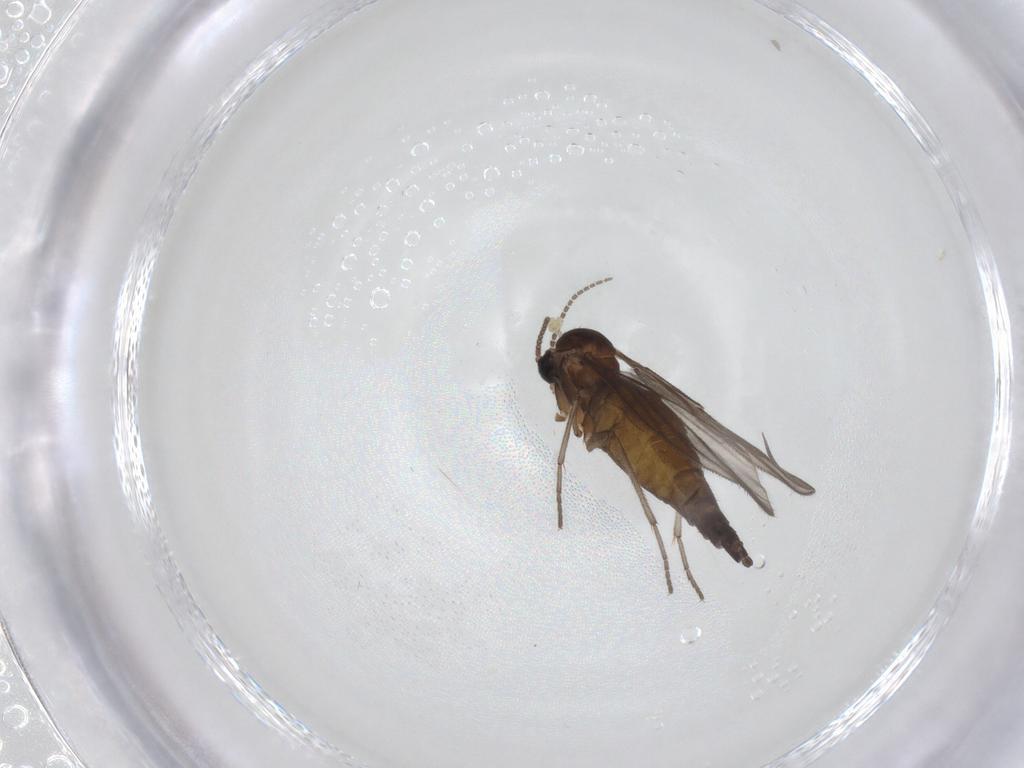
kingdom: Animalia
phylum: Arthropoda
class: Insecta
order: Diptera
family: Sciaridae
